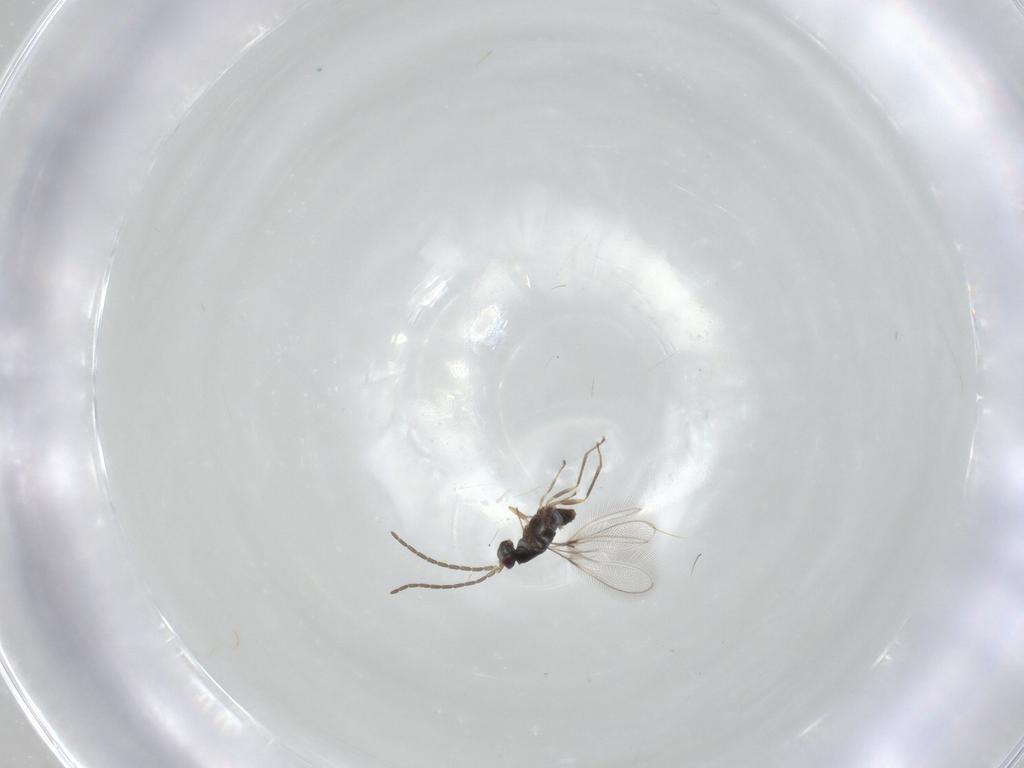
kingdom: Animalia
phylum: Arthropoda
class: Insecta
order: Hymenoptera
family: Mymaridae
